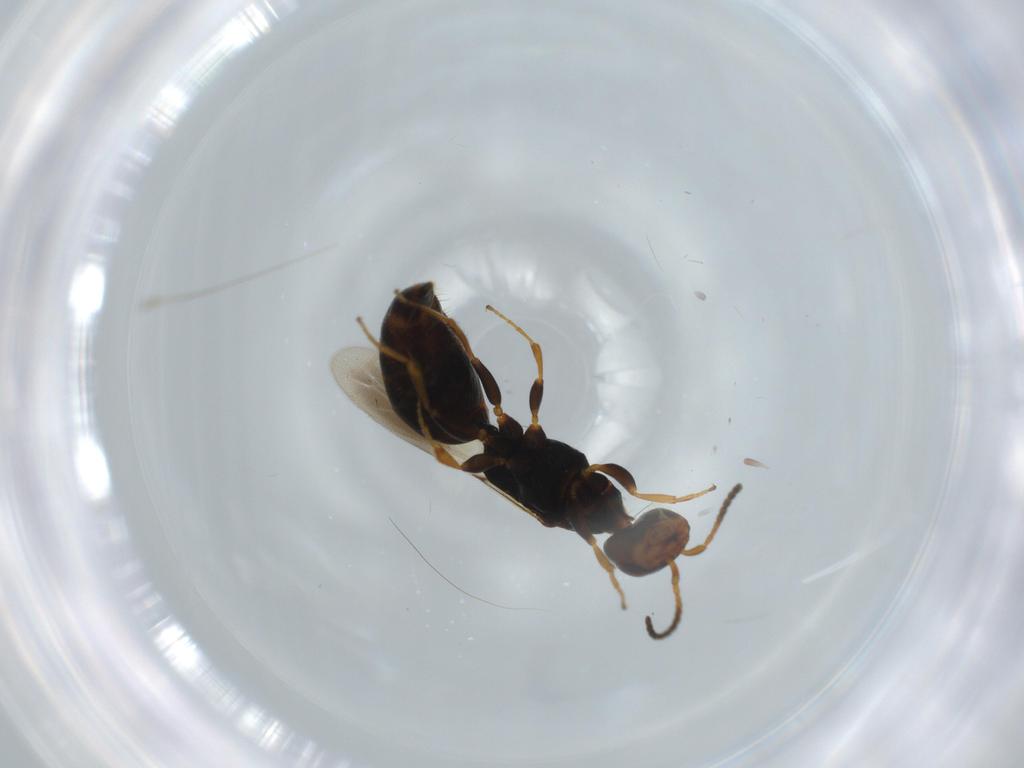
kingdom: Animalia
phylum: Arthropoda
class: Insecta
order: Hymenoptera
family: Bethylidae
